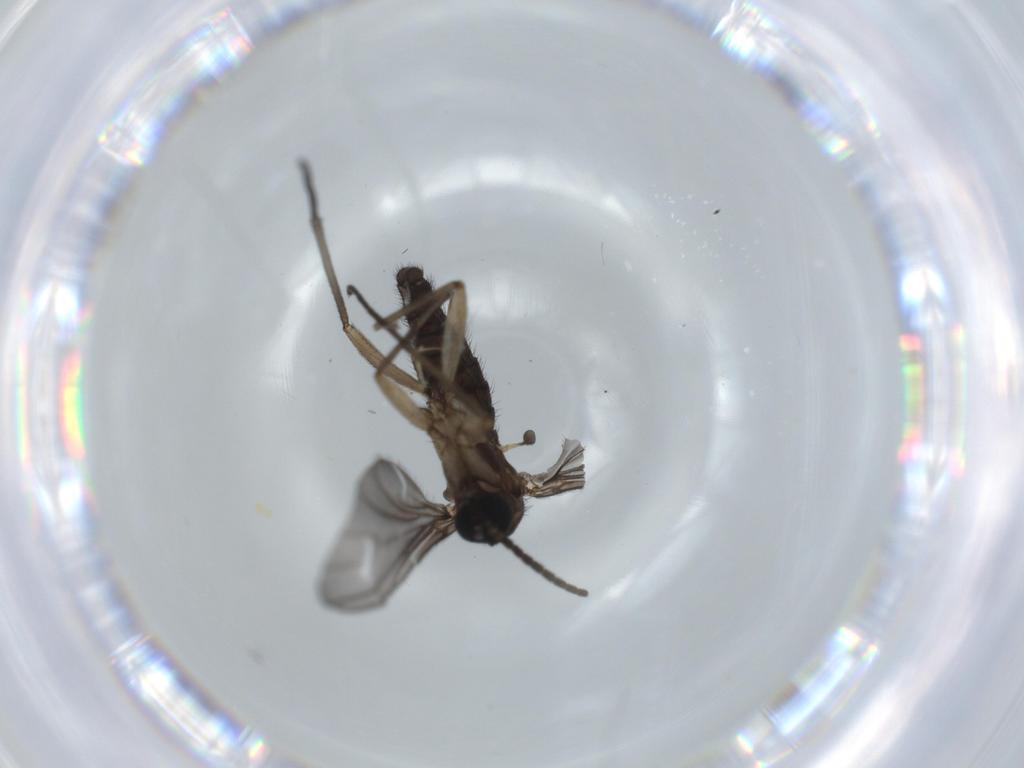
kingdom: Animalia
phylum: Arthropoda
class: Insecta
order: Diptera
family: Sciaridae
